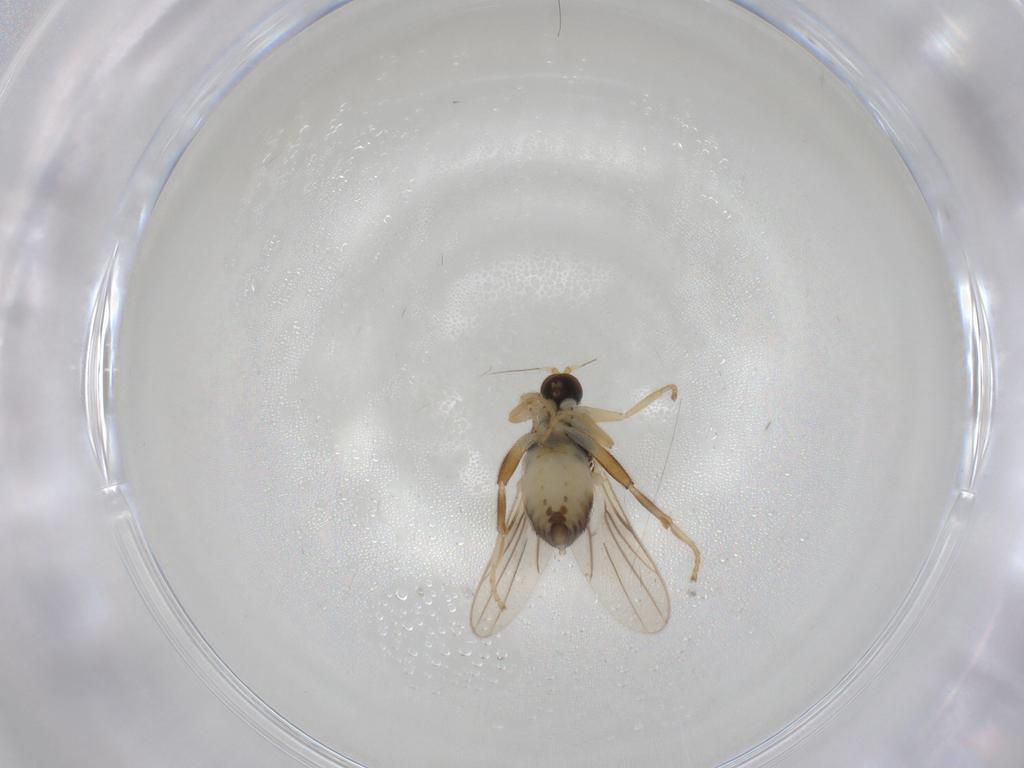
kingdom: Animalia
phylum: Arthropoda
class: Insecta
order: Diptera
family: Hybotidae
